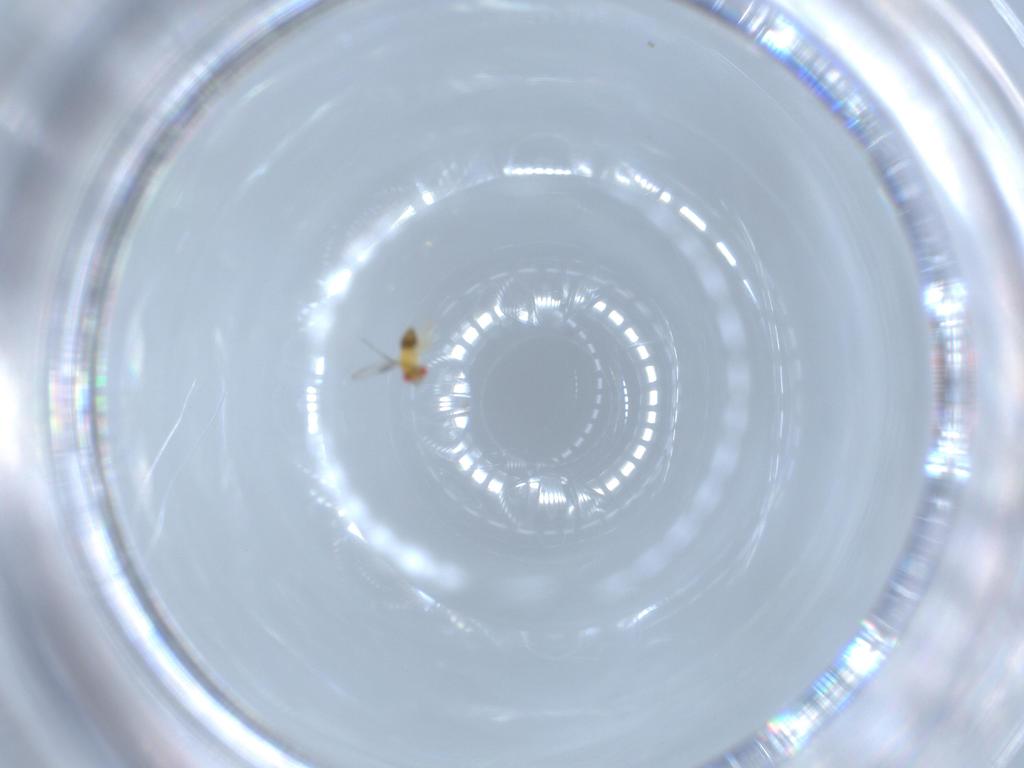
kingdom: Animalia
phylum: Arthropoda
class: Insecta
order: Hymenoptera
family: Trichogrammatidae
